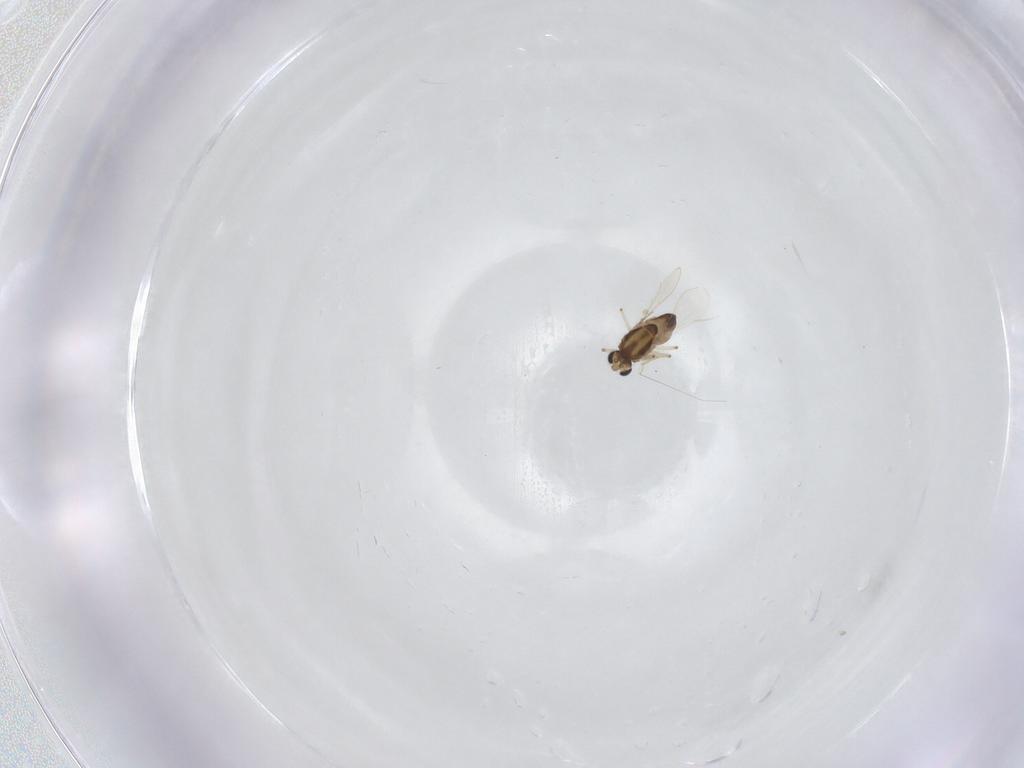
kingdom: Animalia
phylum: Arthropoda
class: Insecta
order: Diptera
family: Chironomidae
